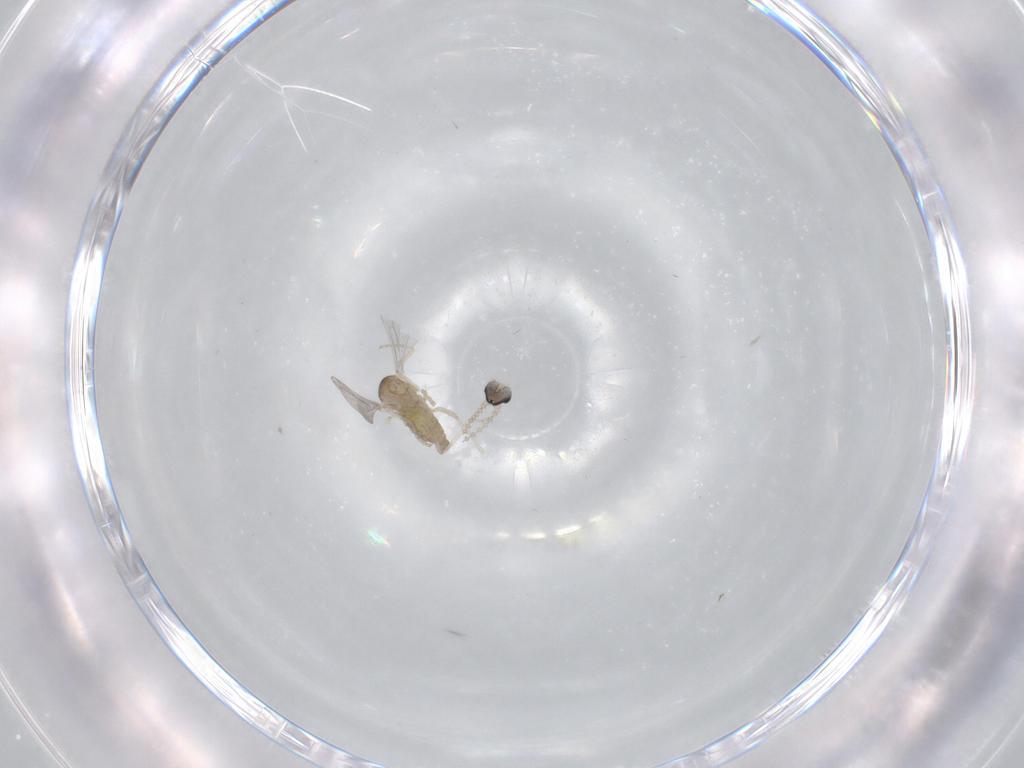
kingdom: Animalia
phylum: Arthropoda
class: Insecta
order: Diptera
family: Cecidomyiidae
